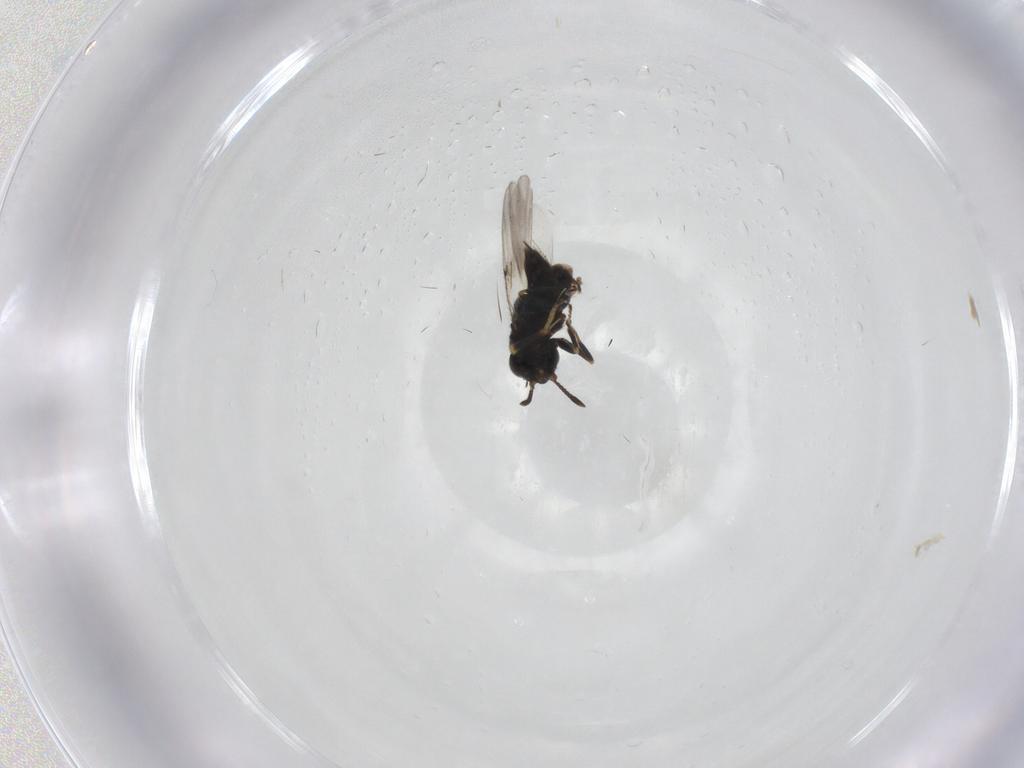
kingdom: Animalia
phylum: Arthropoda
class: Insecta
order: Hymenoptera
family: Encyrtidae
